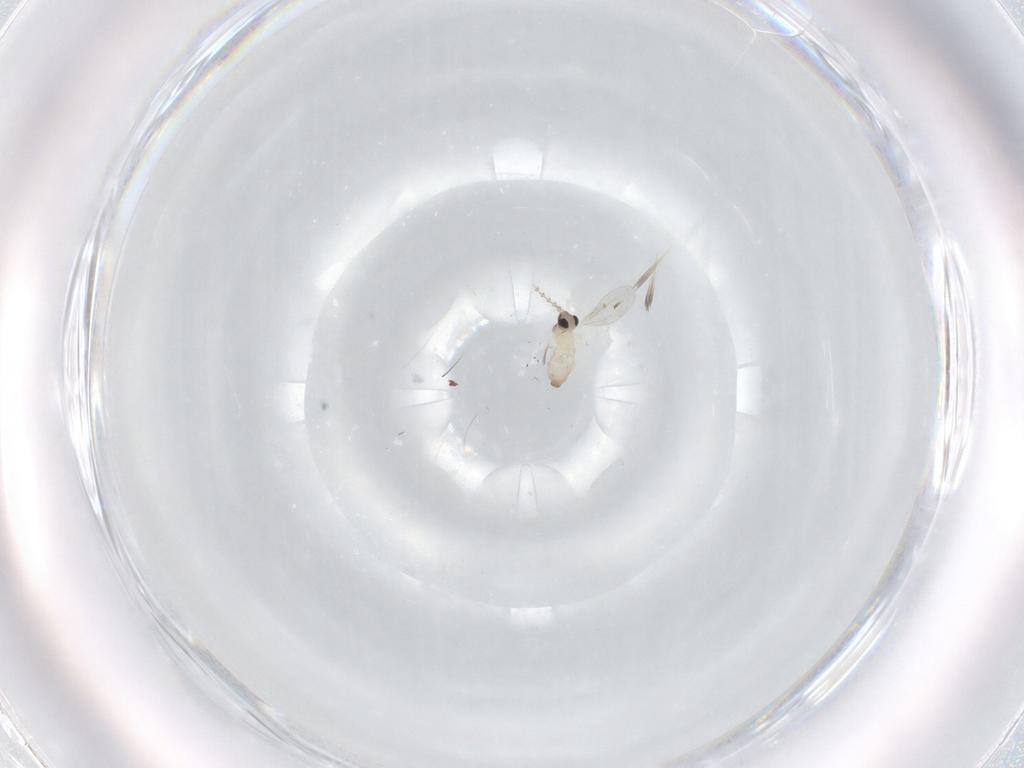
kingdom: Animalia
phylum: Arthropoda
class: Insecta
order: Diptera
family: Cecidomyiidae
